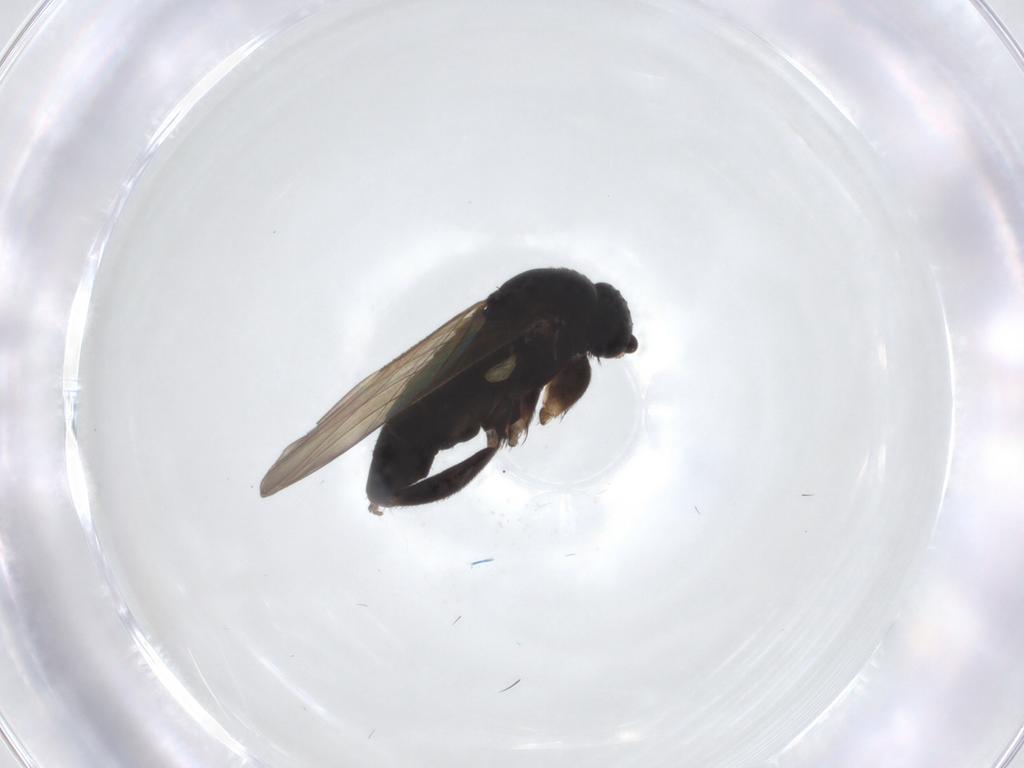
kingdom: Animalia
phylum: Arthropoda
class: Insecta
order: Diptera
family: Phoridae
